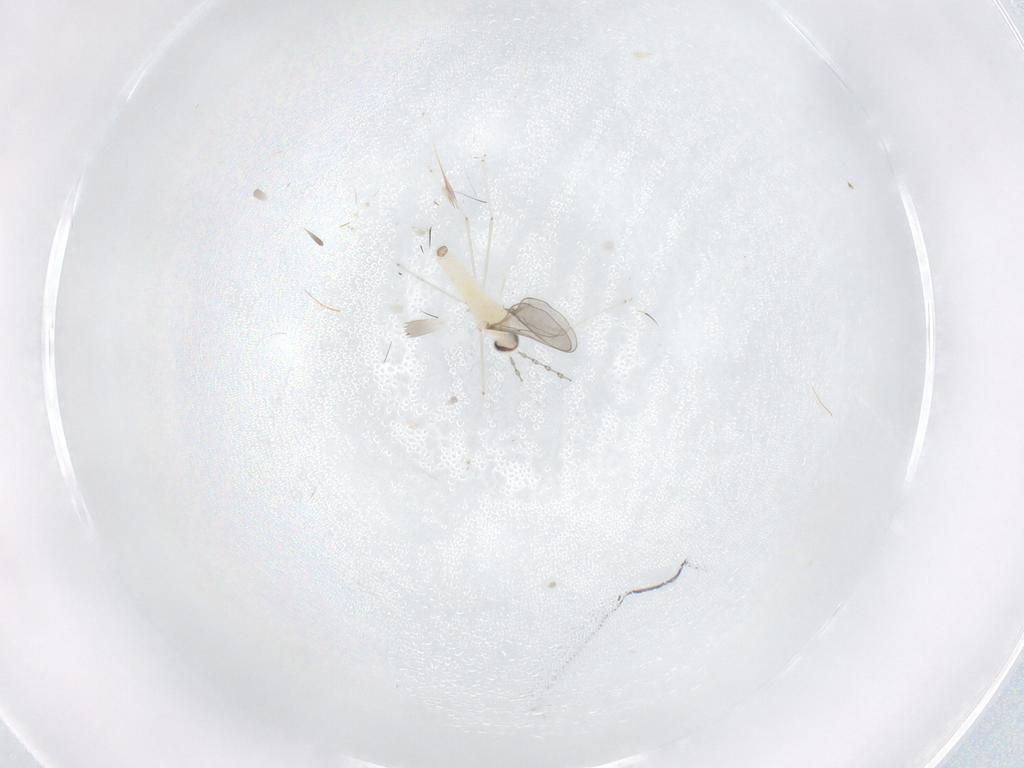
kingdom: Animalia
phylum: Arthropoda
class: Insecta
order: Diptera
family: Cecidomyiidae
